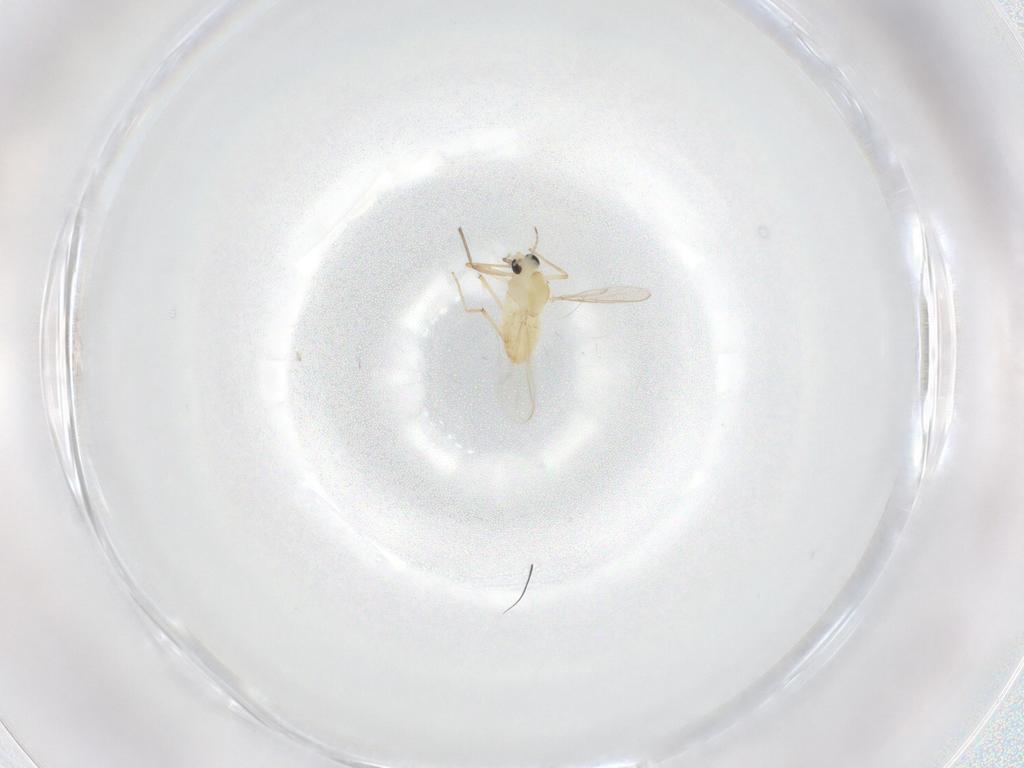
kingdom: Animalia
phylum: Arthropoda
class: Insecta
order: Diptera
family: Chironomidae
